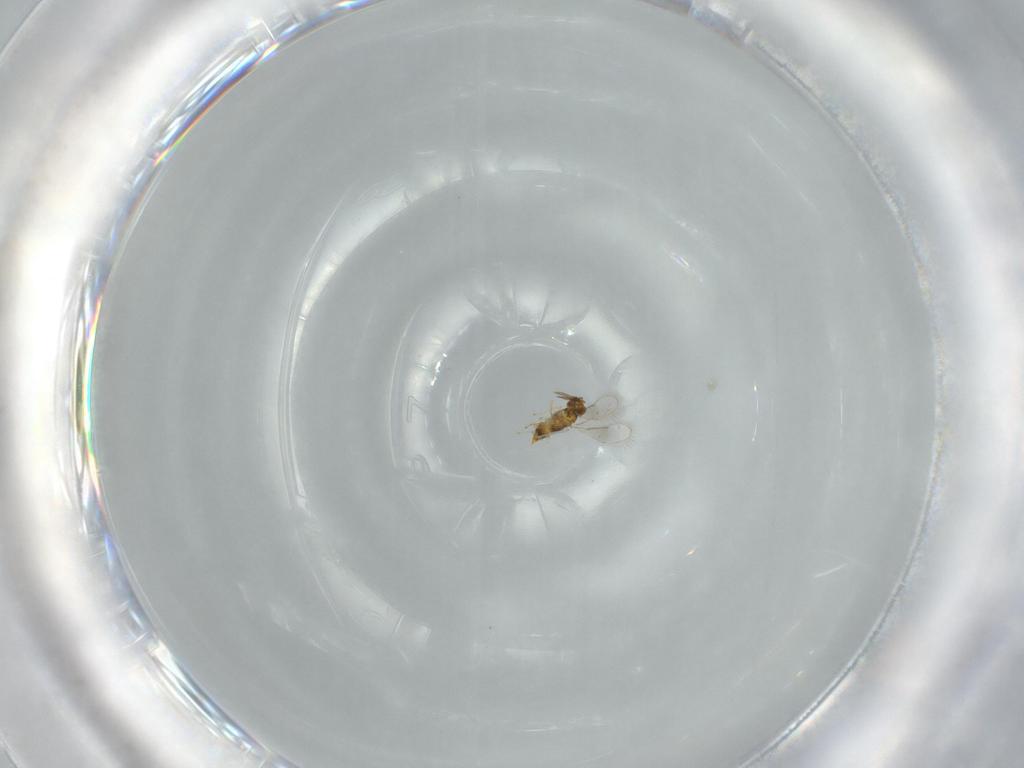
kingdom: Animalia
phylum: Arthropoda
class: Insecta
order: Hymenoptera
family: Aphelinidae
